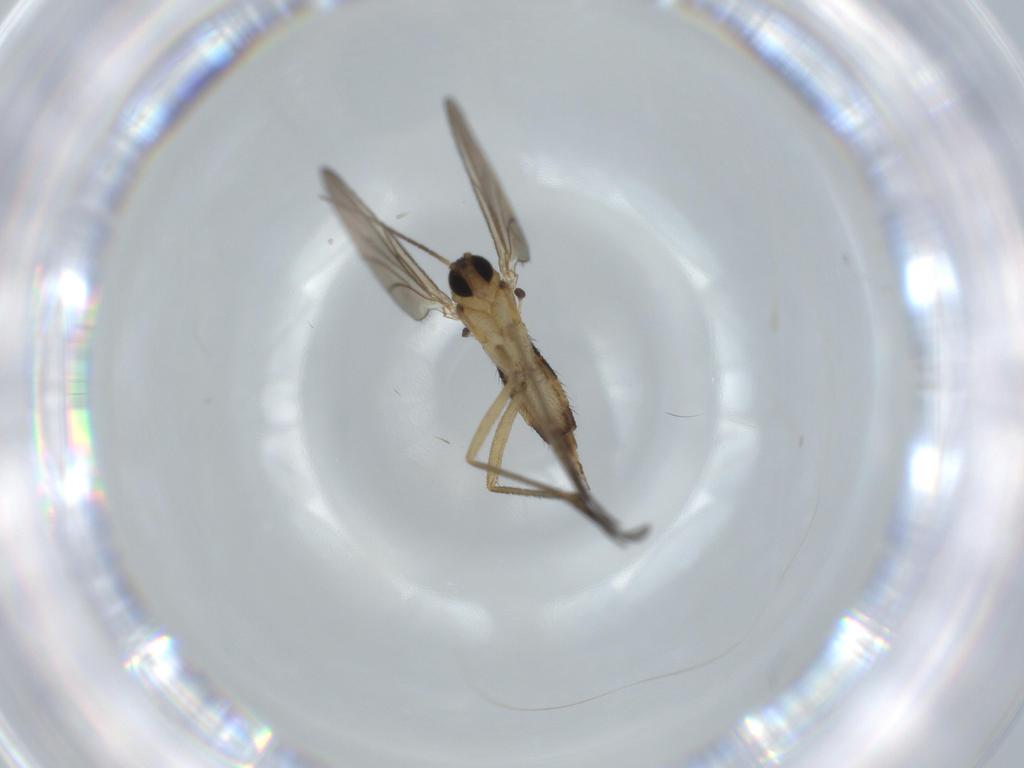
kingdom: Animalia
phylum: Arthropoda
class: Insecta
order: Diptera
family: Sciaridae
